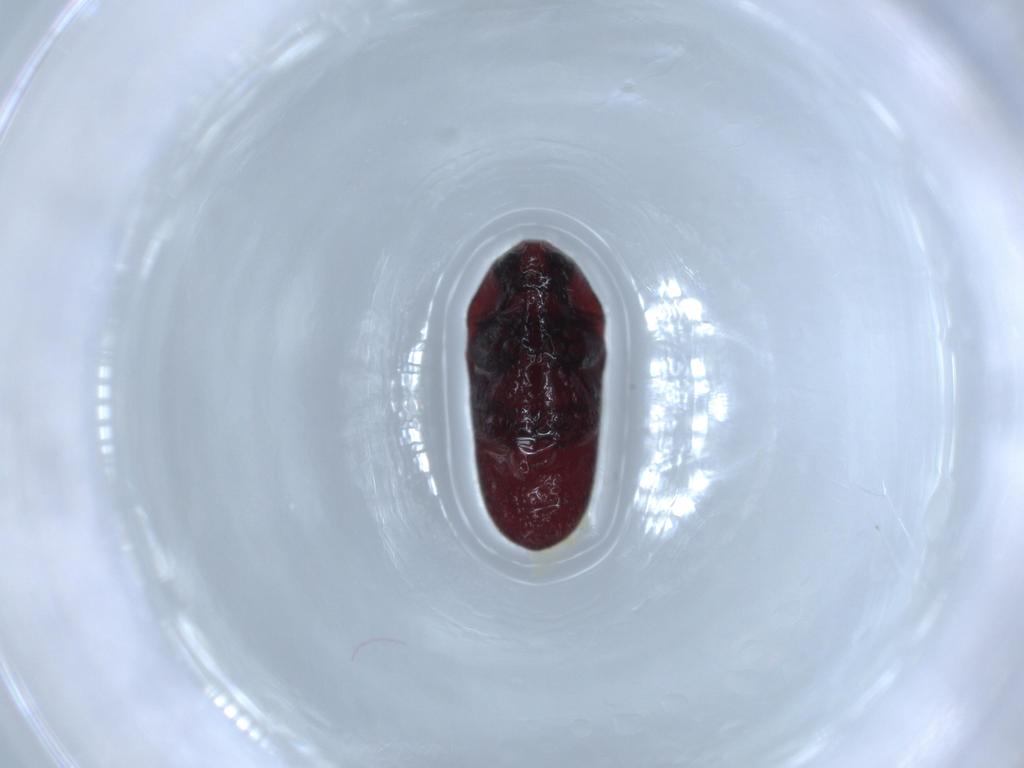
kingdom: Animalia
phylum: Arthropoda
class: Insecta
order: Coleoptera
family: Throscidae
